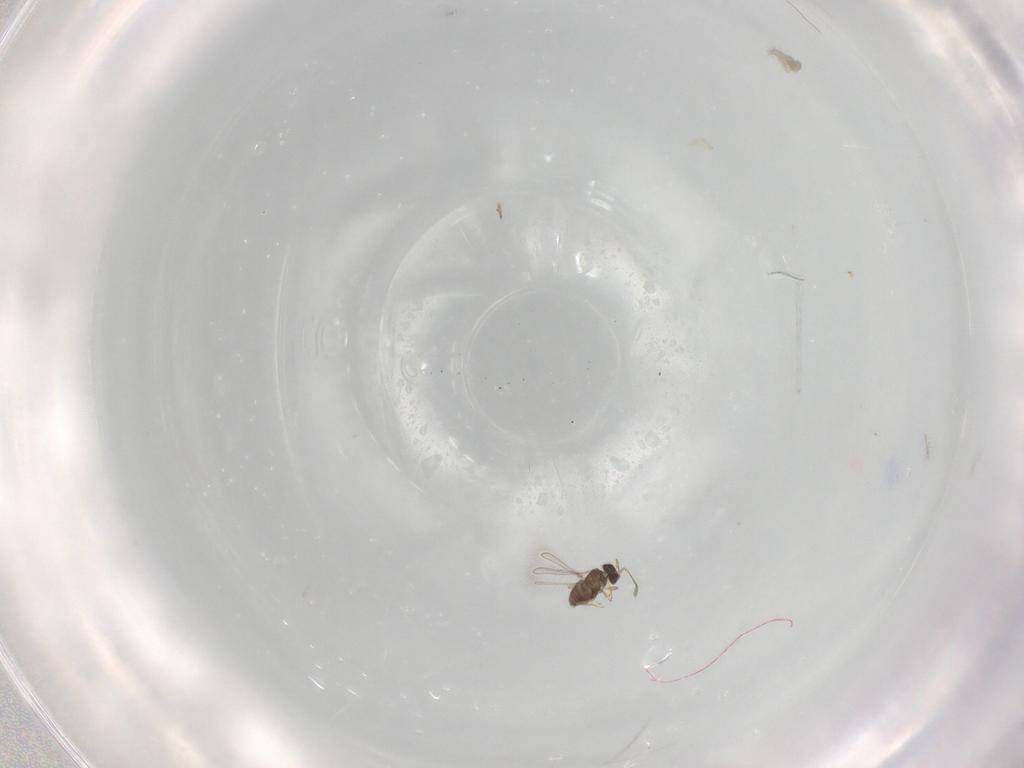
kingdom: Animalia
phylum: Arthropoda
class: Insecta
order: Hymenoptera
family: Mymaridae
